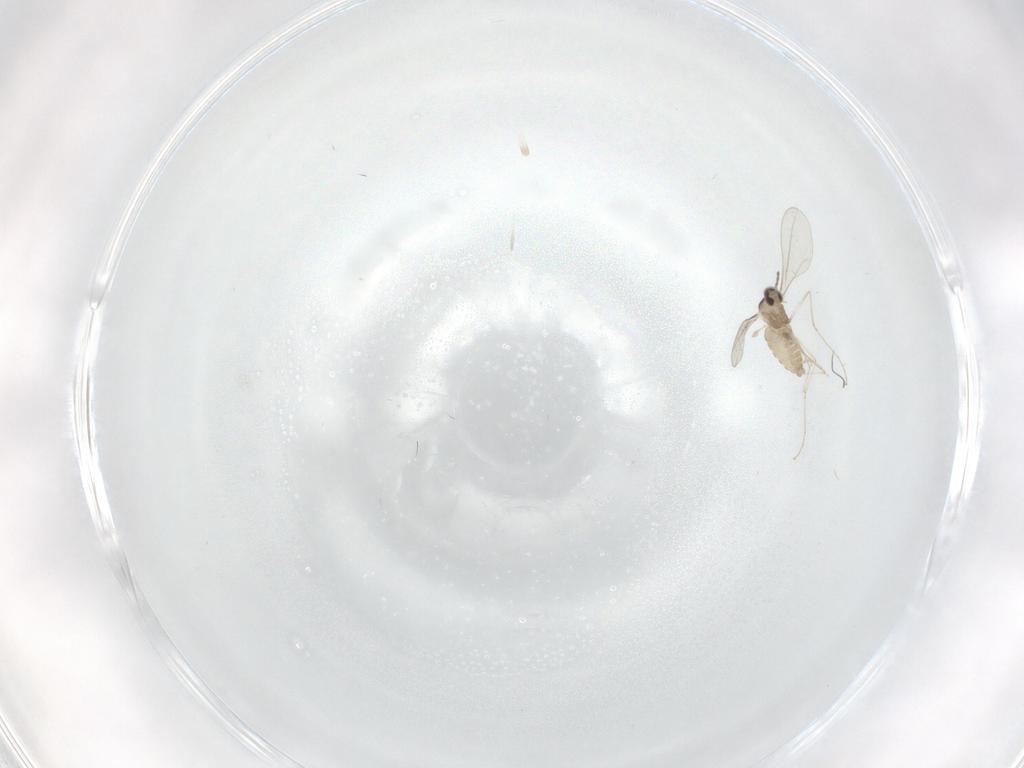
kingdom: Animalia
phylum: Arthropoda
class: Insecta
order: Diptera
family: Cecidomyiidae
